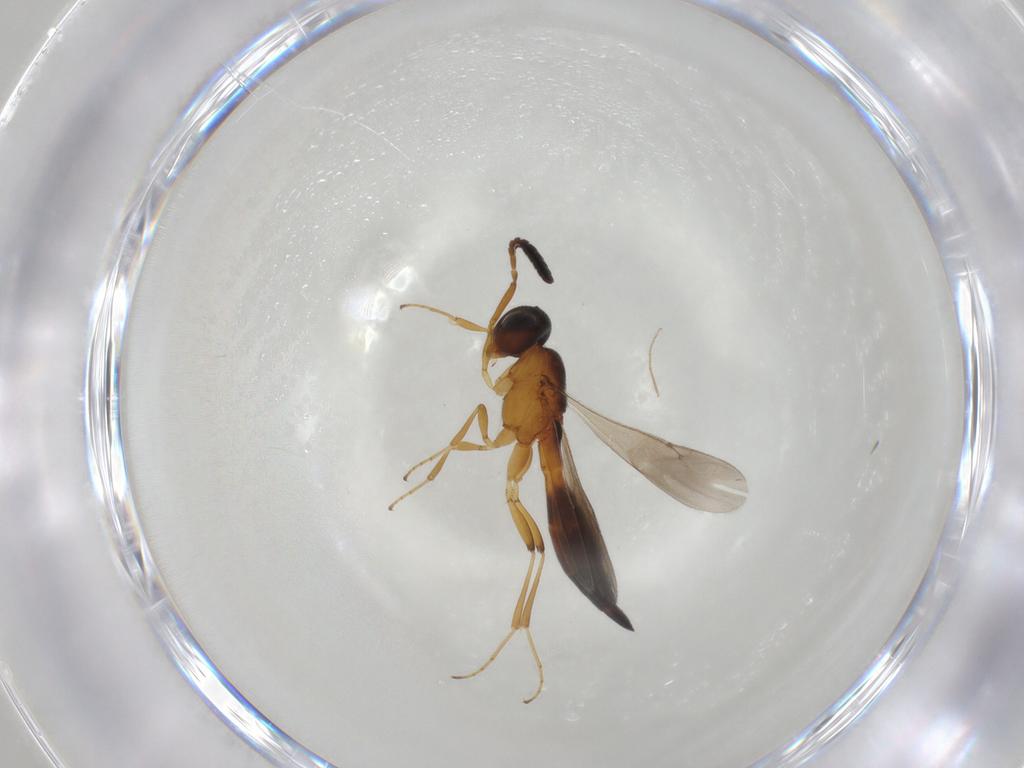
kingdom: Animalia
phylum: Arthropoda
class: Insecta
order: Hymenoptera
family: Scelionidae
